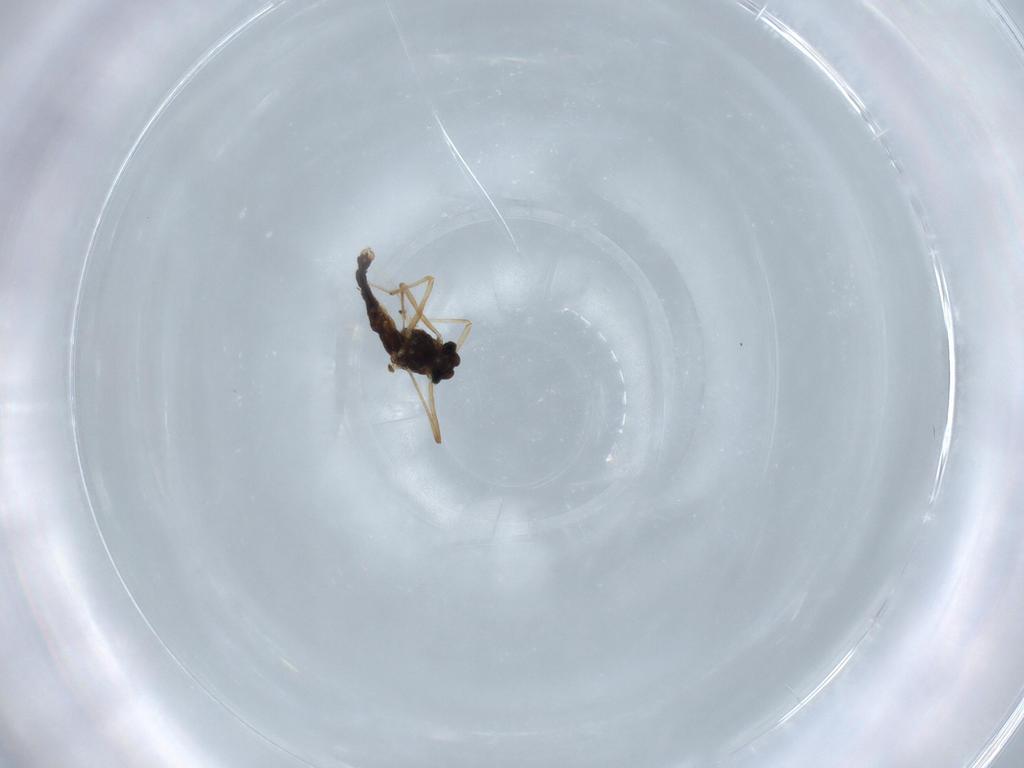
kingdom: Animalia
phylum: Arthropoda
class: Insecta
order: Diptera
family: Chironomidae
